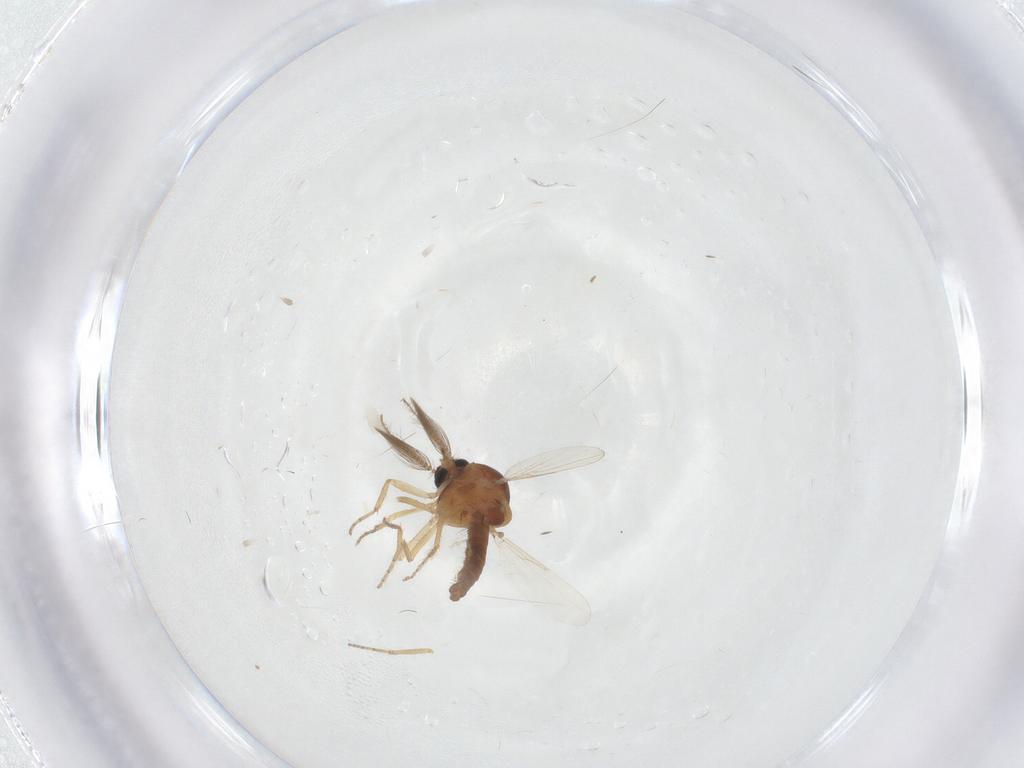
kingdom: Animalia
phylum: Arthropoda
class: Insecta
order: Diptera
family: Ceratopogonidae
